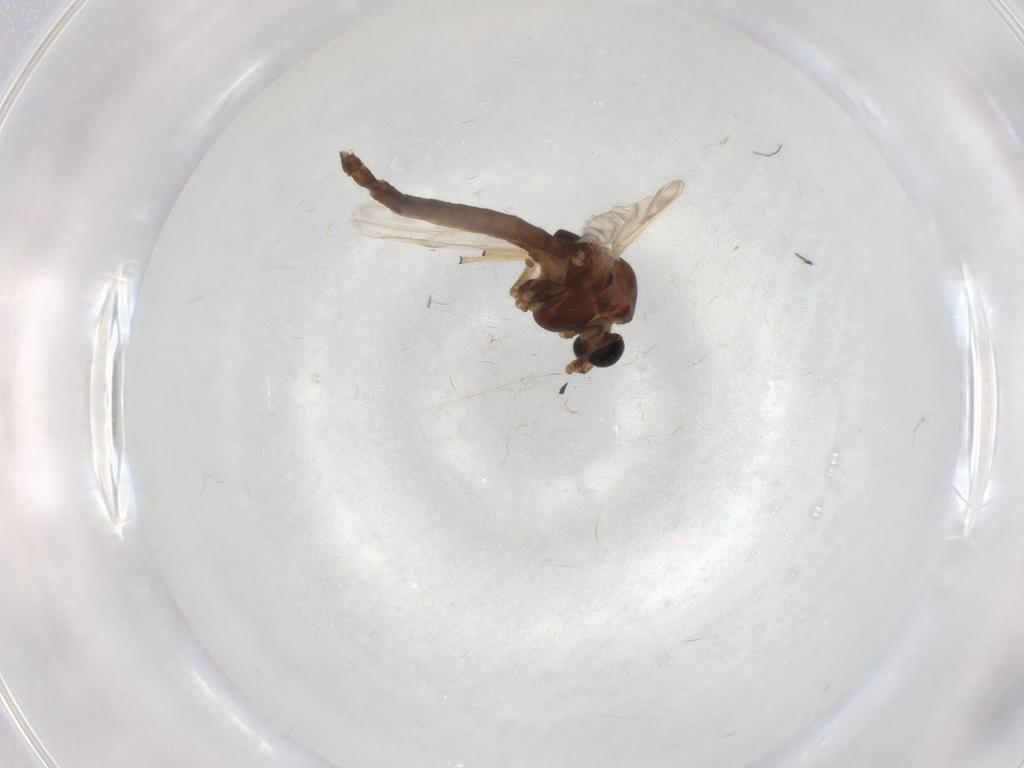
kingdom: Animalia
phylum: Arthropoda
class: Insecta
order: Diptera
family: Chironomidae
